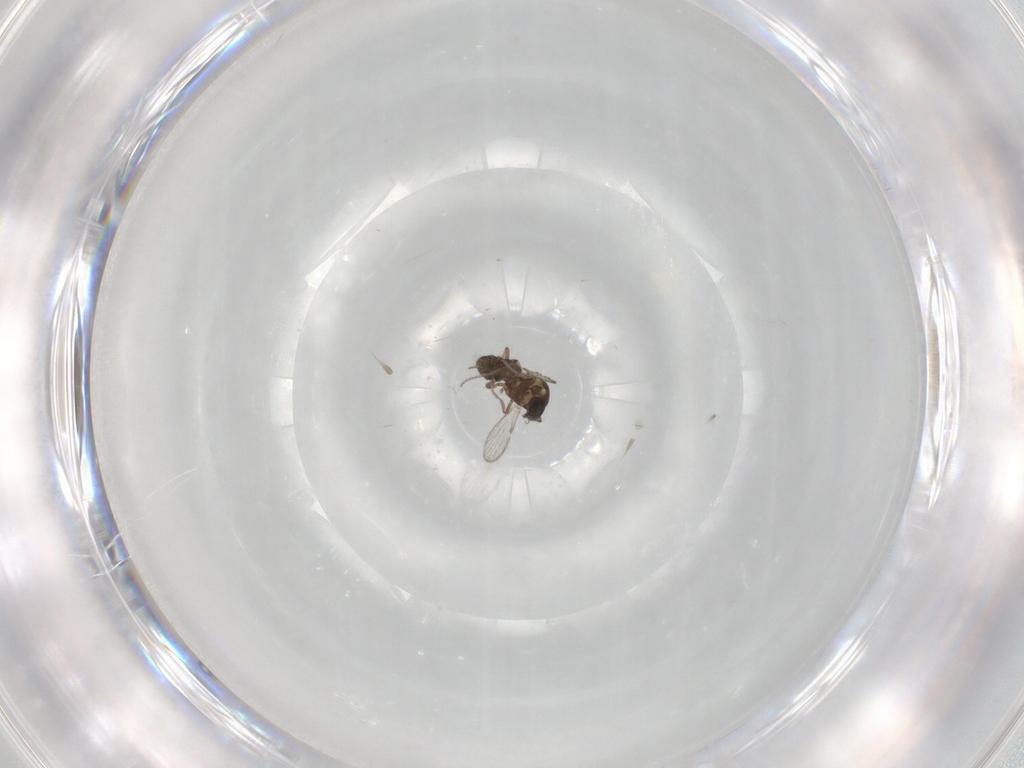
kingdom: Animalia
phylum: Arthropoda
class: Insecta
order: Diptera
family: Ceratopogonidae
